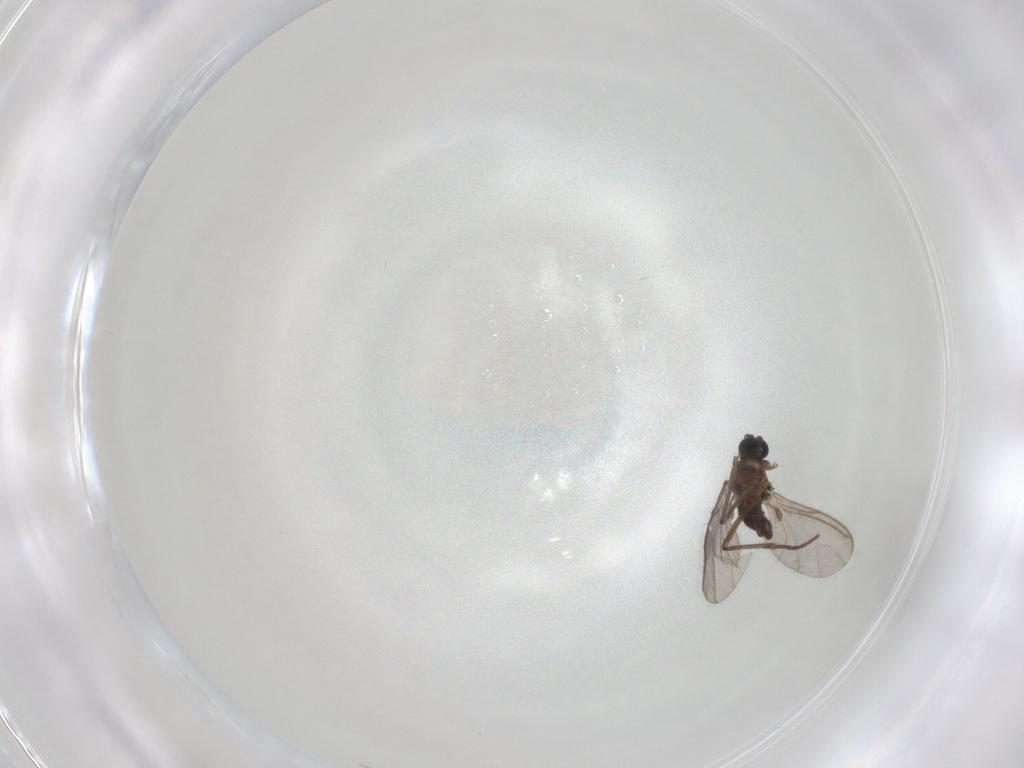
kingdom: Animalia
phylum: Arthropoda
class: Insecta
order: Diptera
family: Sciaridae
